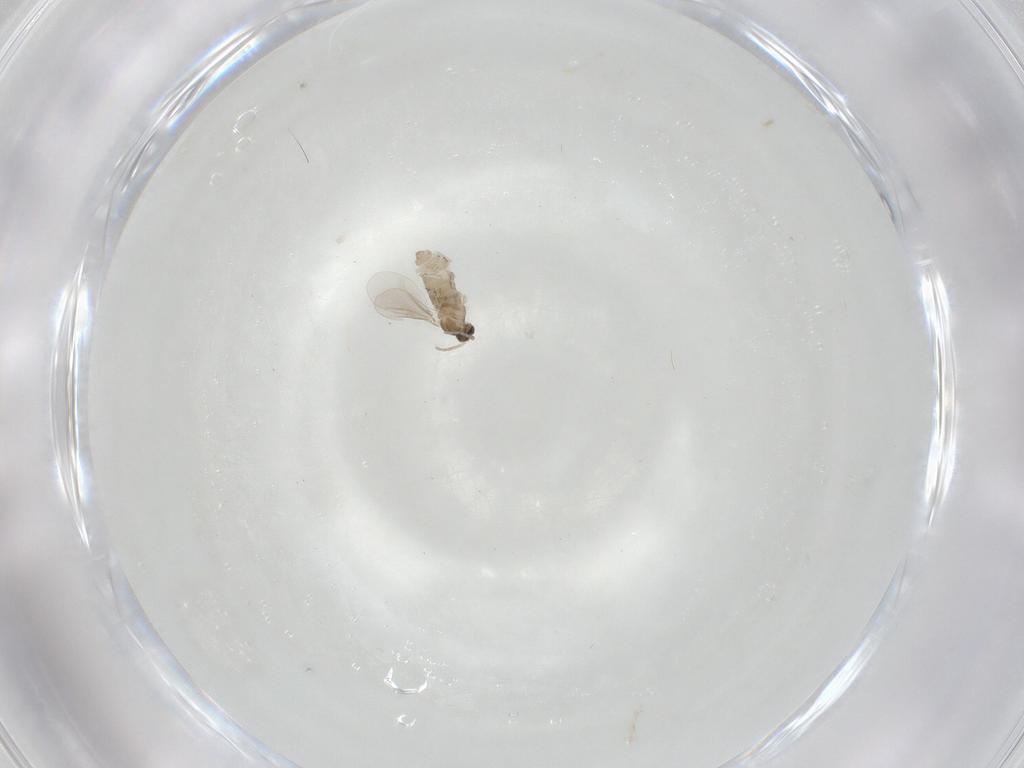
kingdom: Animalia
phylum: Arthropoda
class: Insecta
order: Diptera
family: Cecidomyiidae
